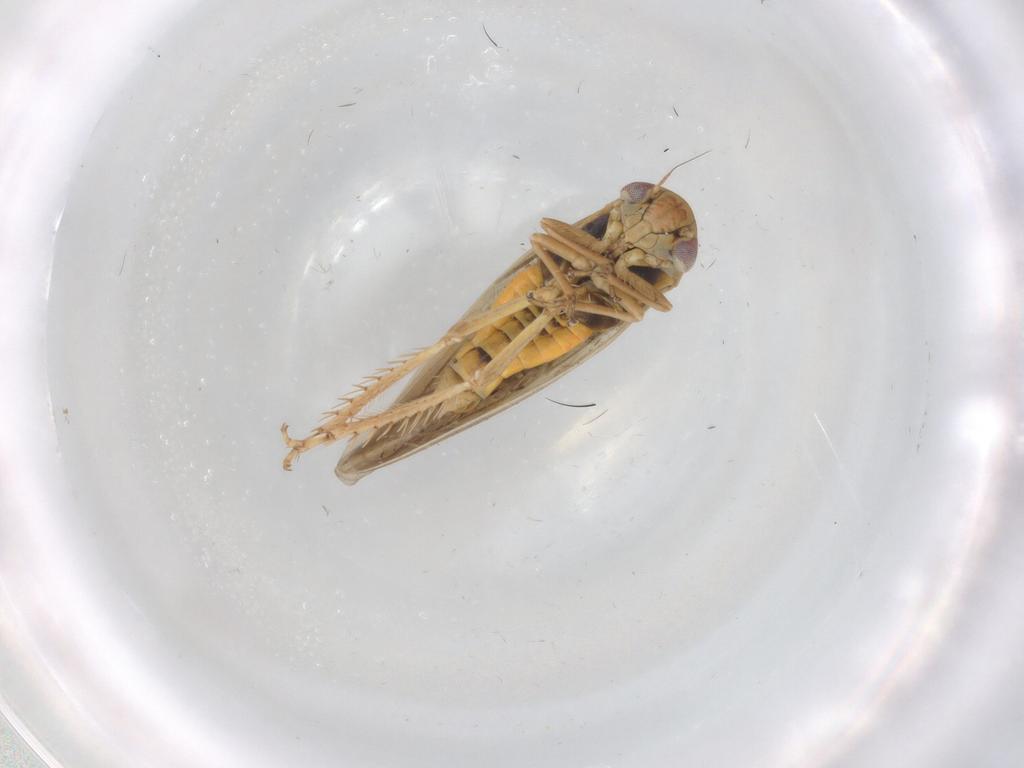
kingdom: Animalia
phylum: Arthropoda
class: Insecta
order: Hemiptera
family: Cicadellidae
